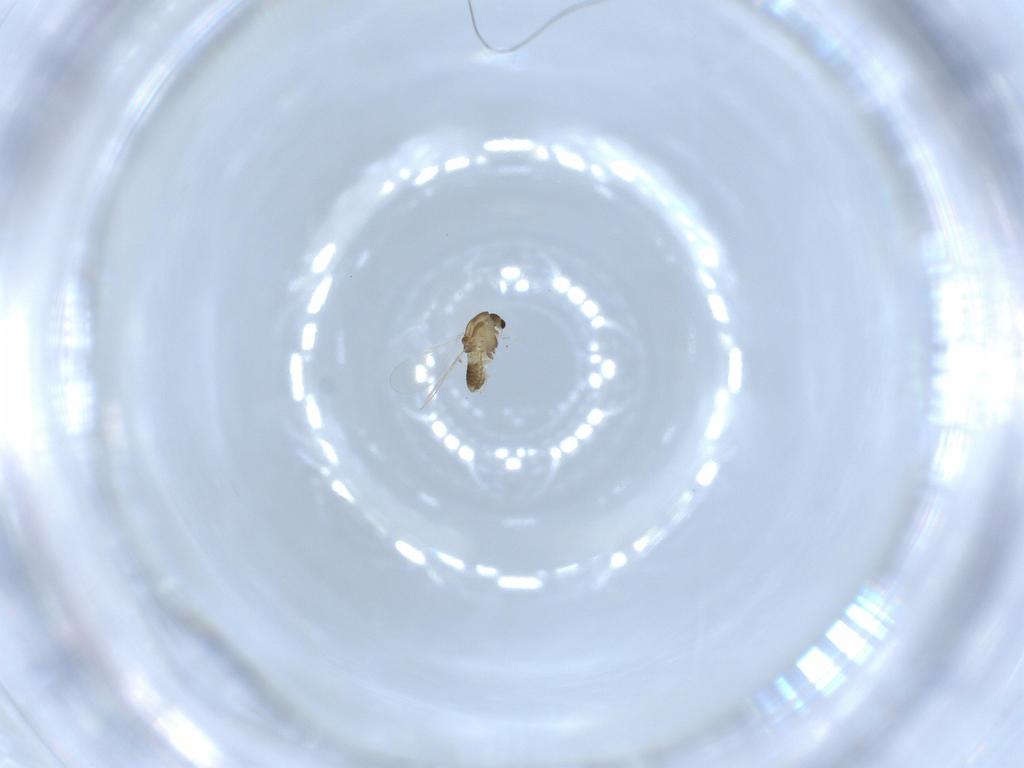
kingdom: Animalia
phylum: Arthropoda
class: Insecta
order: Diptera
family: Chironomidae
